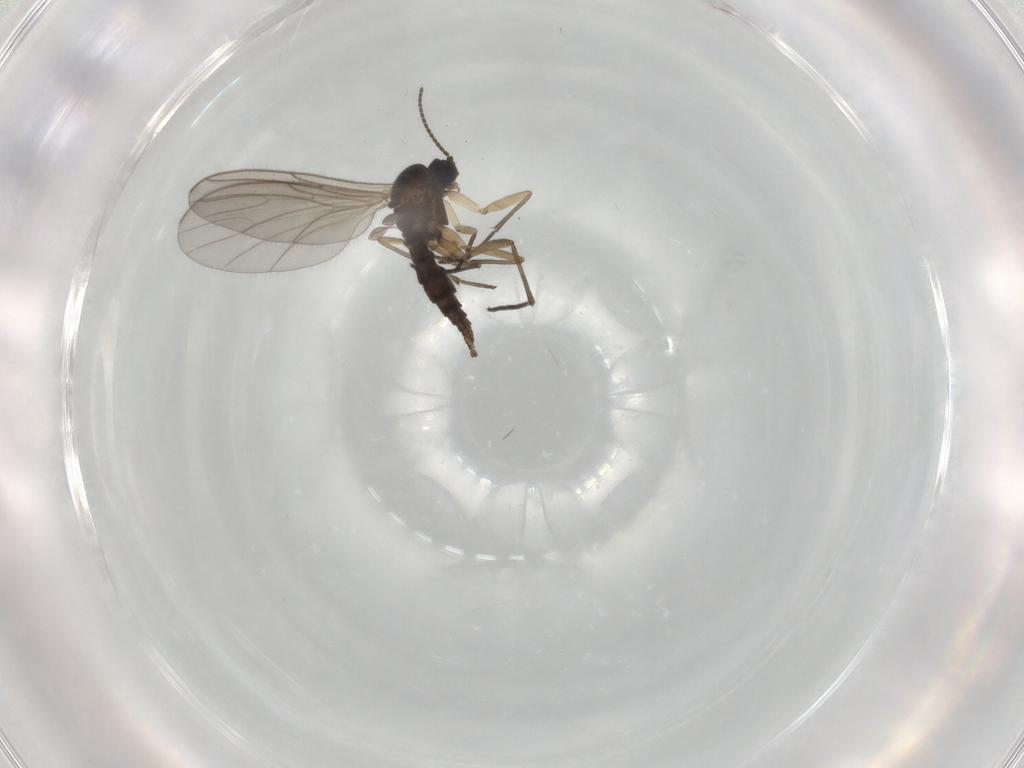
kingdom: Animalia
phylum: Arthropoda
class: Insecta
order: Diptera
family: Sciaridae
